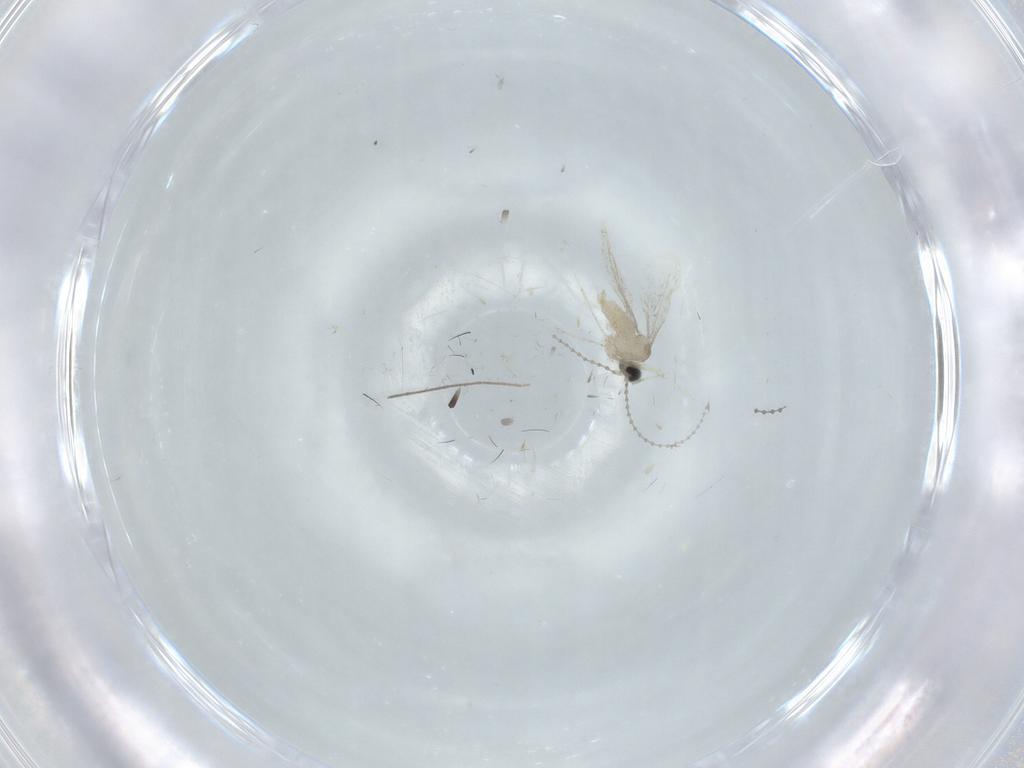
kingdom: Animalia
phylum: Arthropoda
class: Insecta
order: Diptera
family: Cecidomyiidae
